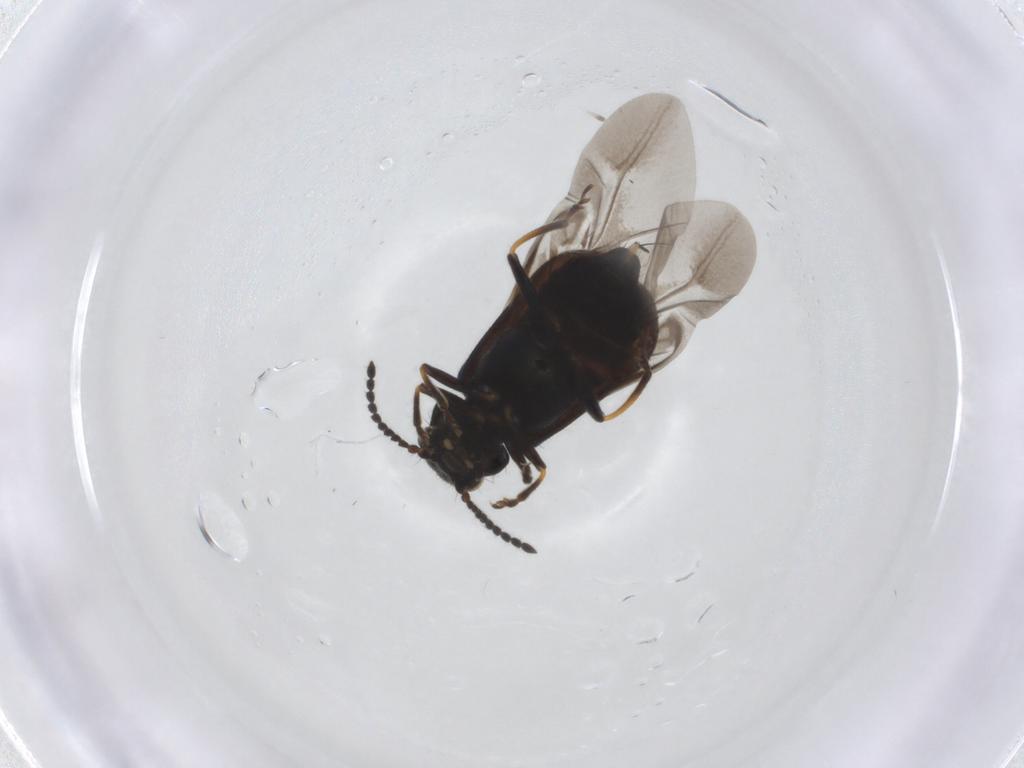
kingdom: Animalia
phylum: Arthropoda
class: Insecta
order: Coleoptera
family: Melyridae
